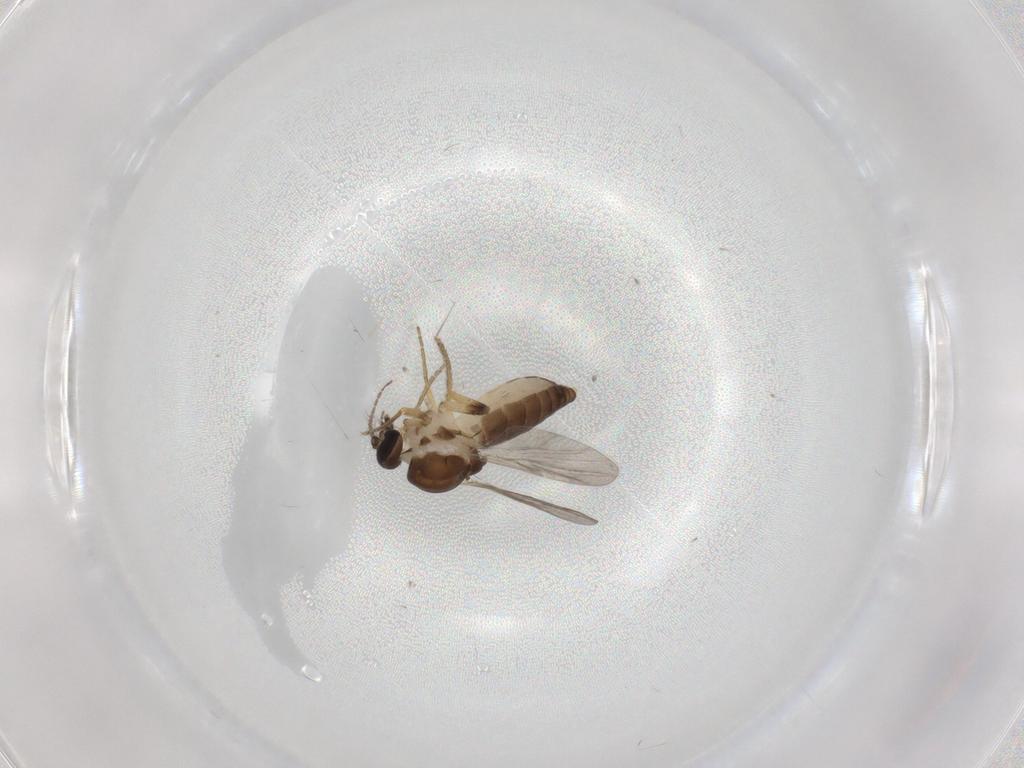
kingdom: Animalia
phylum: Arthropoda
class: Insecta
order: Diptera
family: Ceratopogonidae
